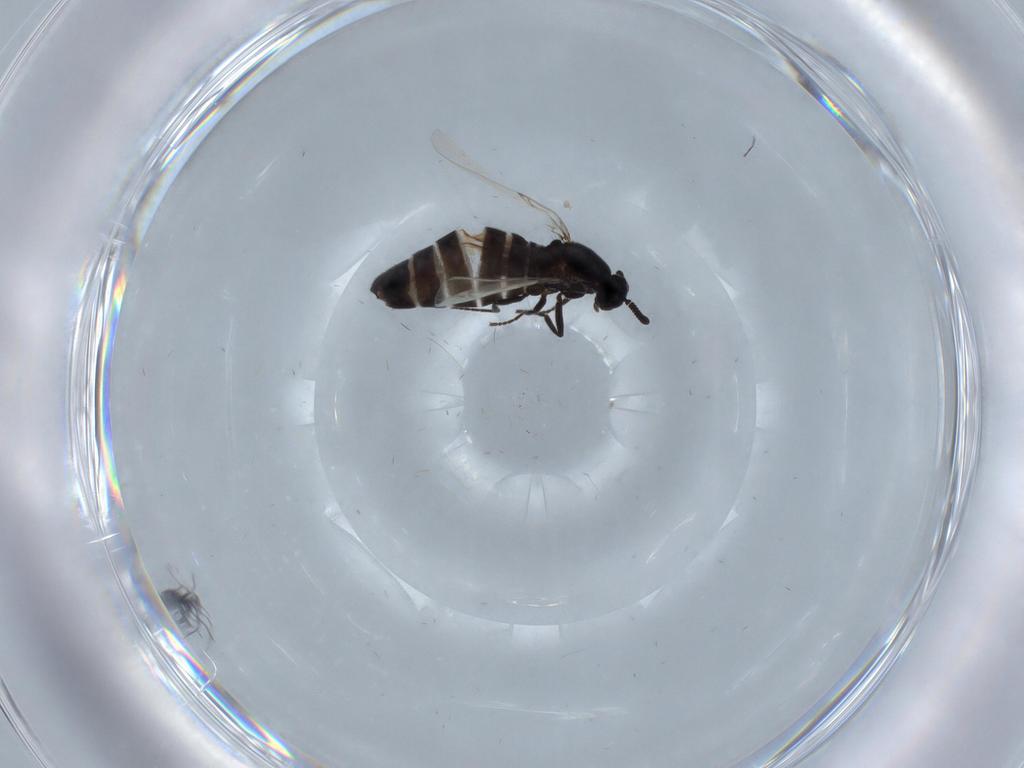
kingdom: Animalia
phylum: Arthropoda
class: Insecta
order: Diptera
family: Scatopsidae
